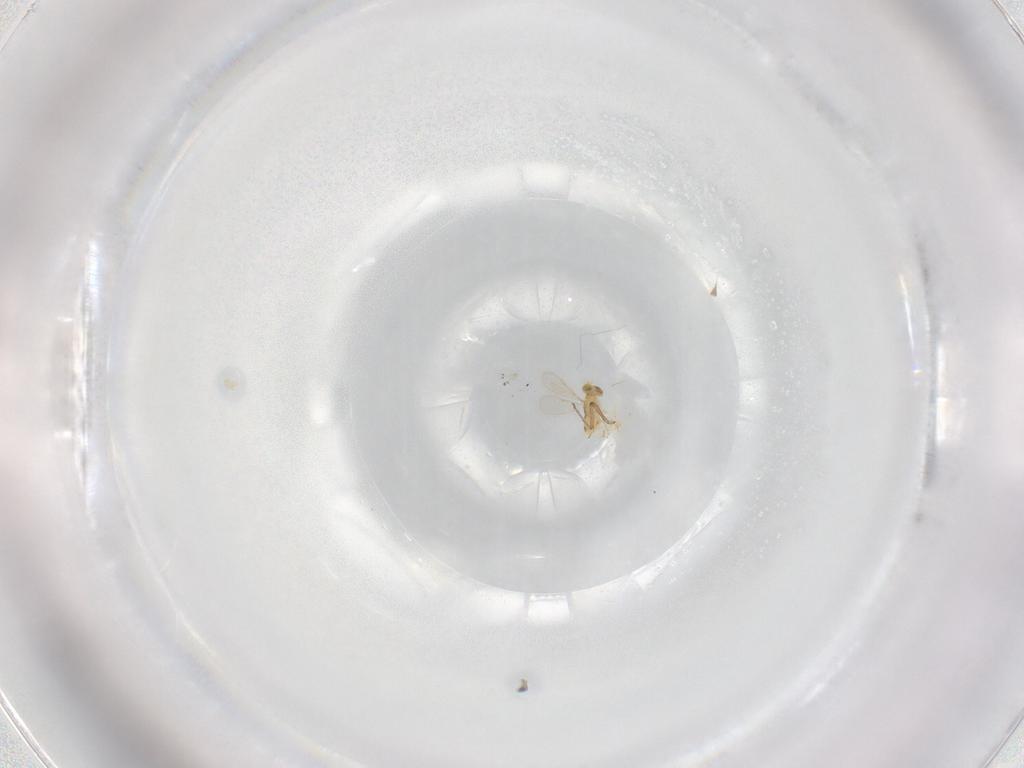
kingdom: Animalia
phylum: Arthropoda
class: Insecta
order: Hymenoptera
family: Aphelinidae
